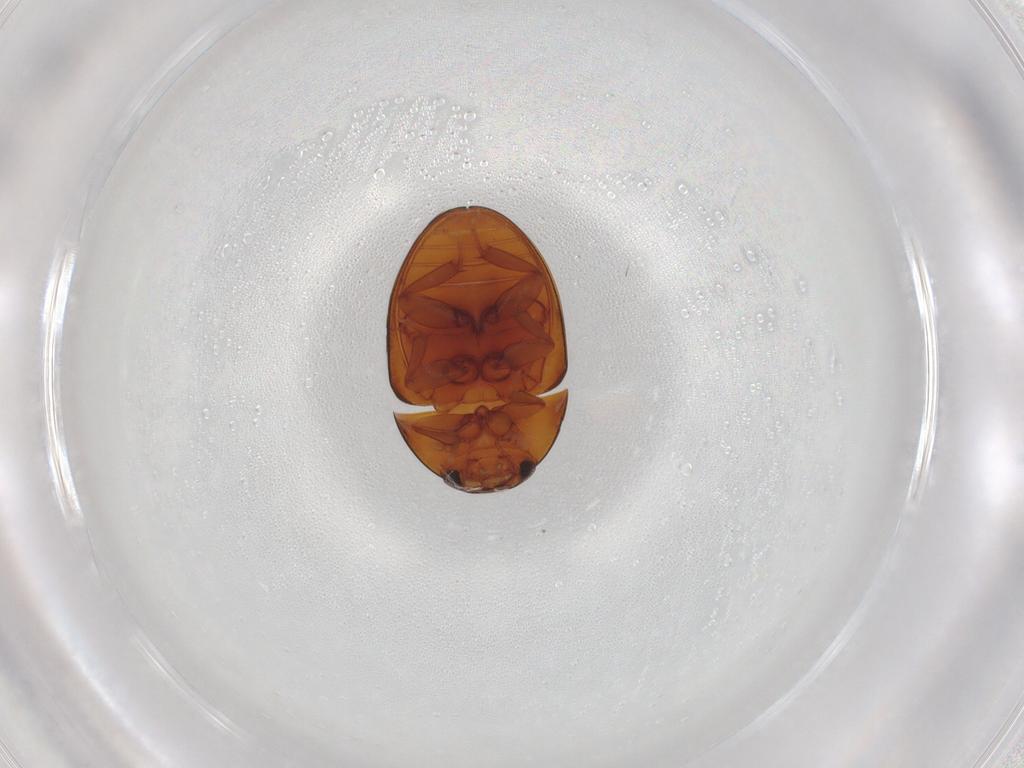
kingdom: Animalia
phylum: Arthropoda
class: Insecta
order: Coleoptera
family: Phalacridae
